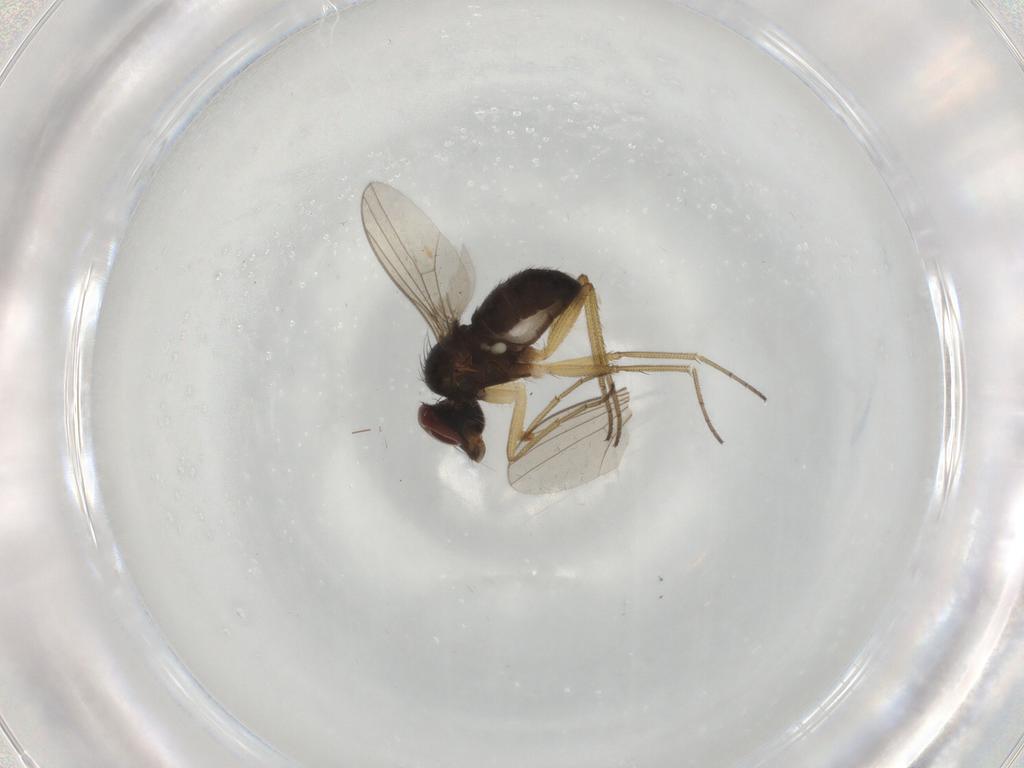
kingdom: Animalia
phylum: Arthropoda
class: Insecta
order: Diptera
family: Dolichopodidae
